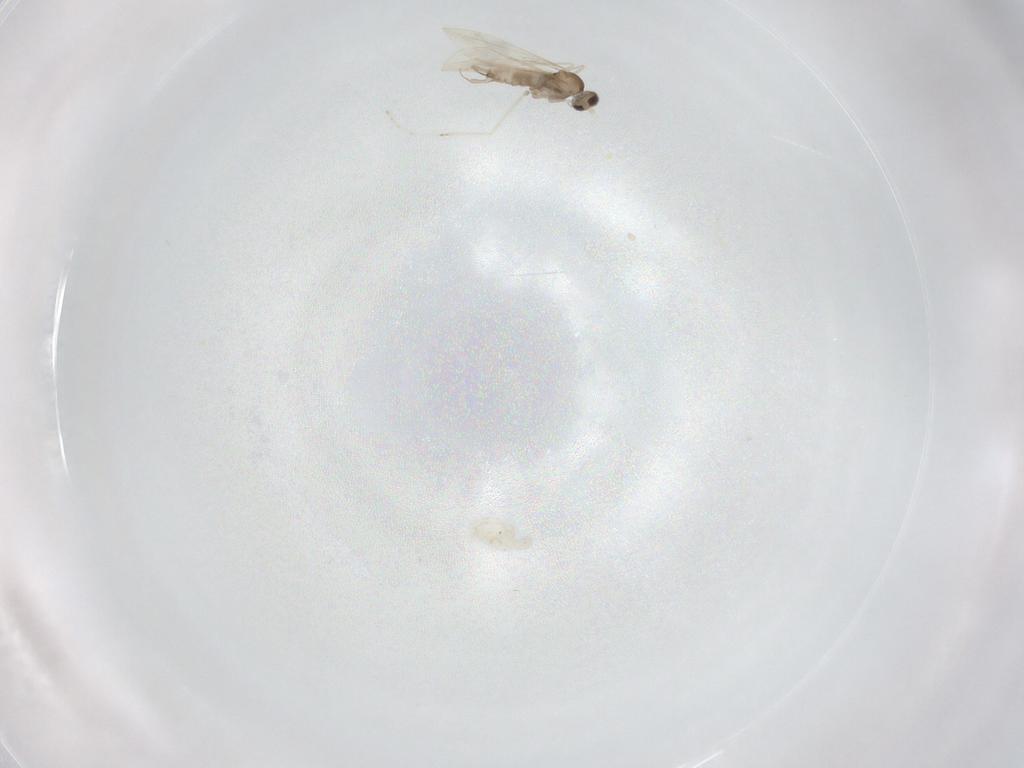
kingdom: Animalia
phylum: Arthropoda
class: Insecta
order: Diptera
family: Cecidomyiidae
